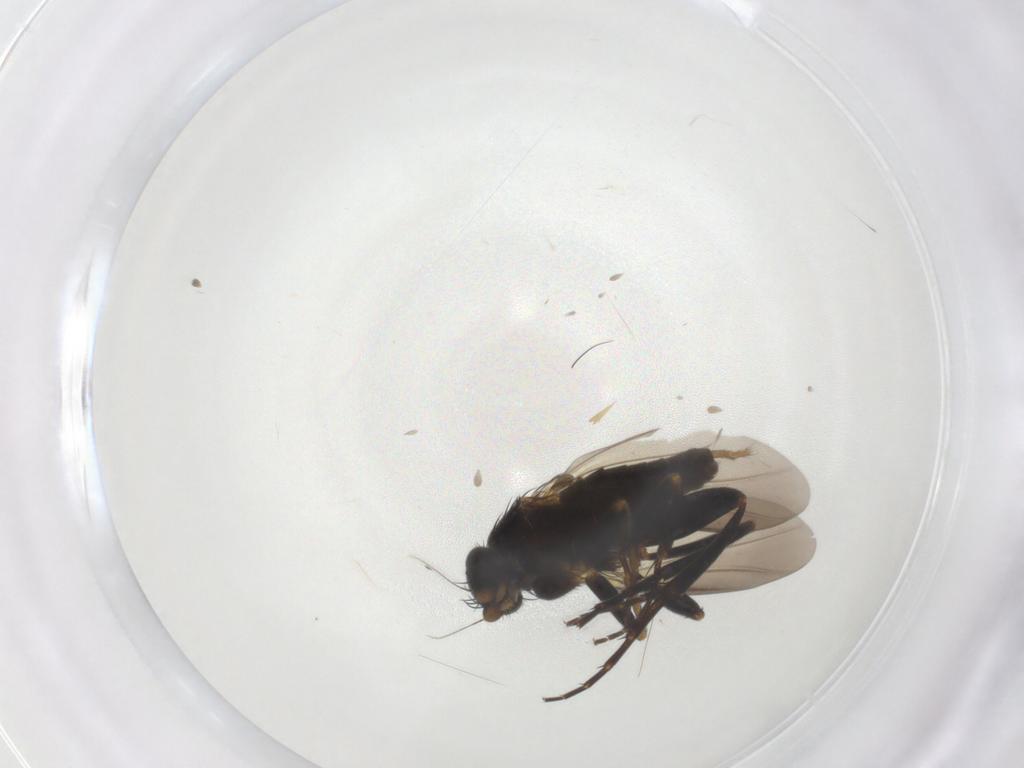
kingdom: Animalia
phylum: Arthropoda
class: Insecta
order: Diptera
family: Phoridae
